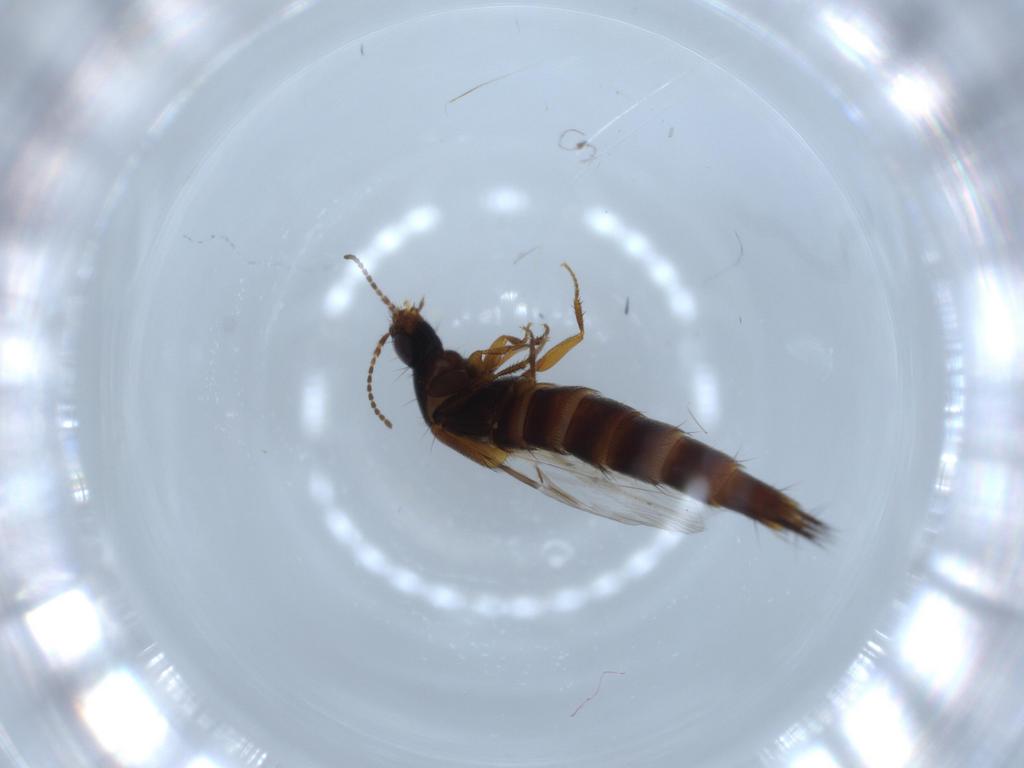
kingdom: Animalia
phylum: Arthropoda
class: Insecta
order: Coleoptera
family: Staphylinidae
